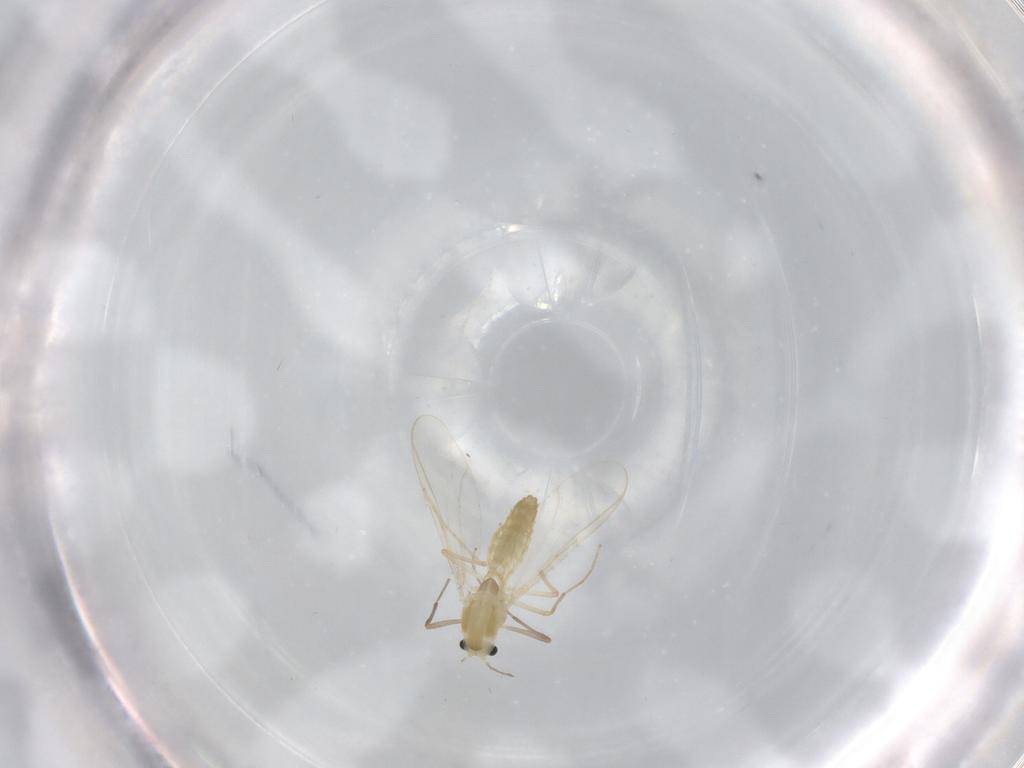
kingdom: Animalia
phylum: Arthropoda
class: Insecta
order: Diptera
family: Chironomidae
